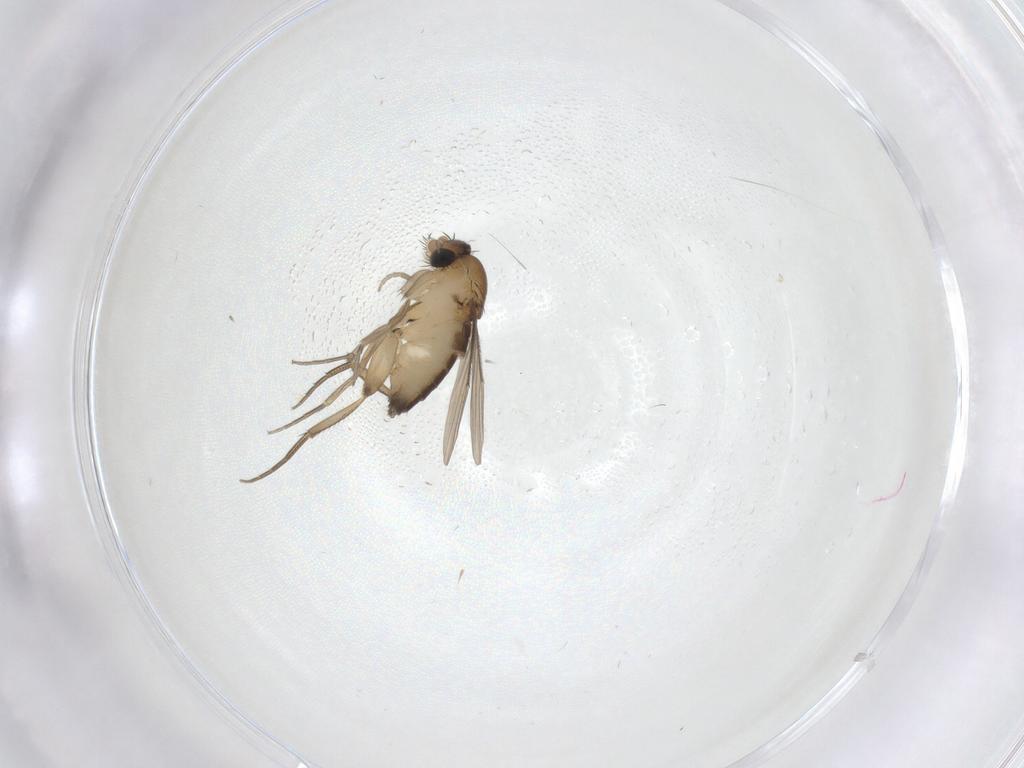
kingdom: Animalia
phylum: Arthropoda
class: Insecta
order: Diptera
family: Phoridae
